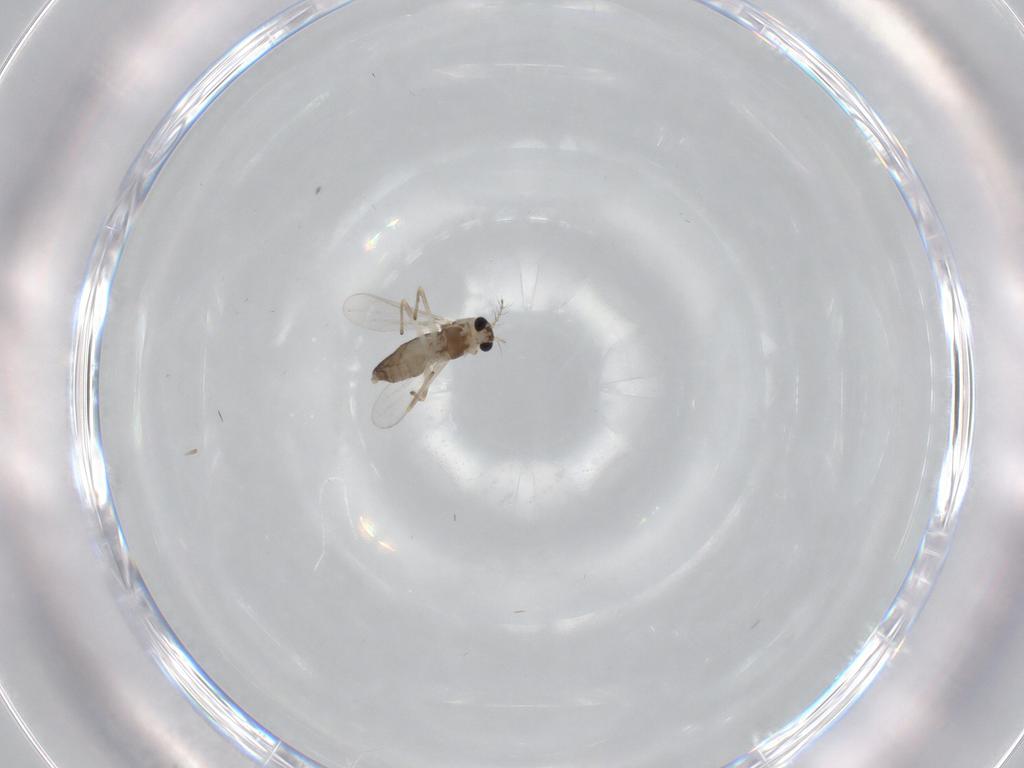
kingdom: Animalia
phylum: Arthropoda
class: Insecta
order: Diptera
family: Chironomidae
